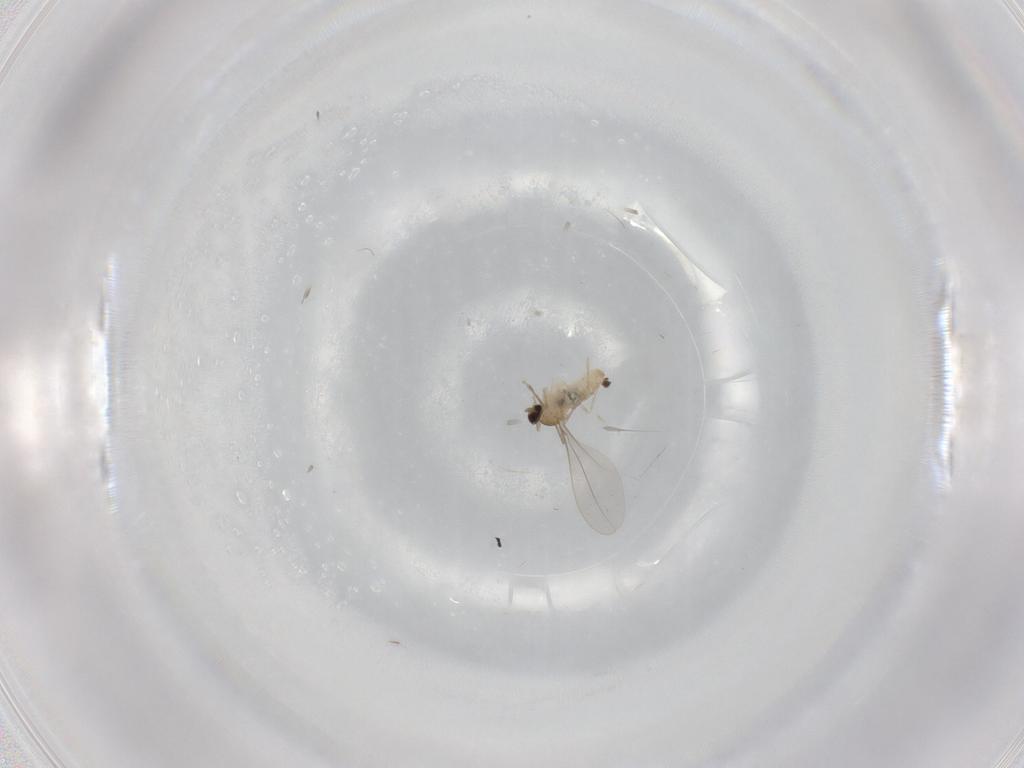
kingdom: Animalia
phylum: Arthropoda
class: Insecta
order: Diptera
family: Cecidomyiidae
